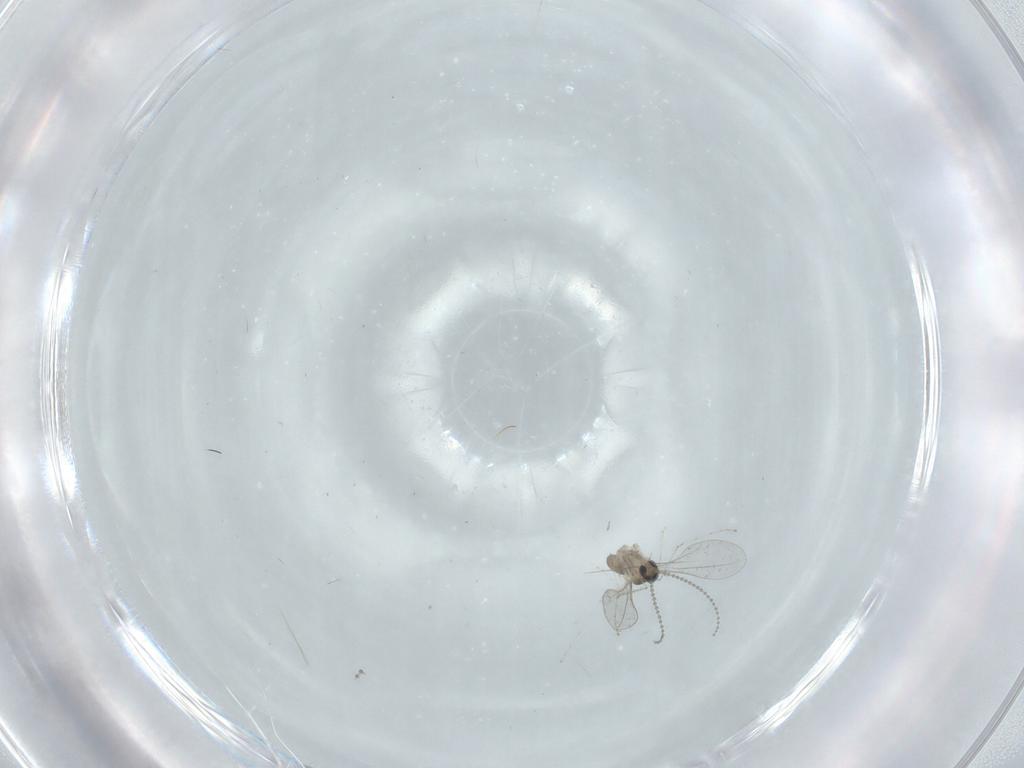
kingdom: Animalia
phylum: Arthropoda
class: Insecta
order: Diptera
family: Cecidomyiidae
